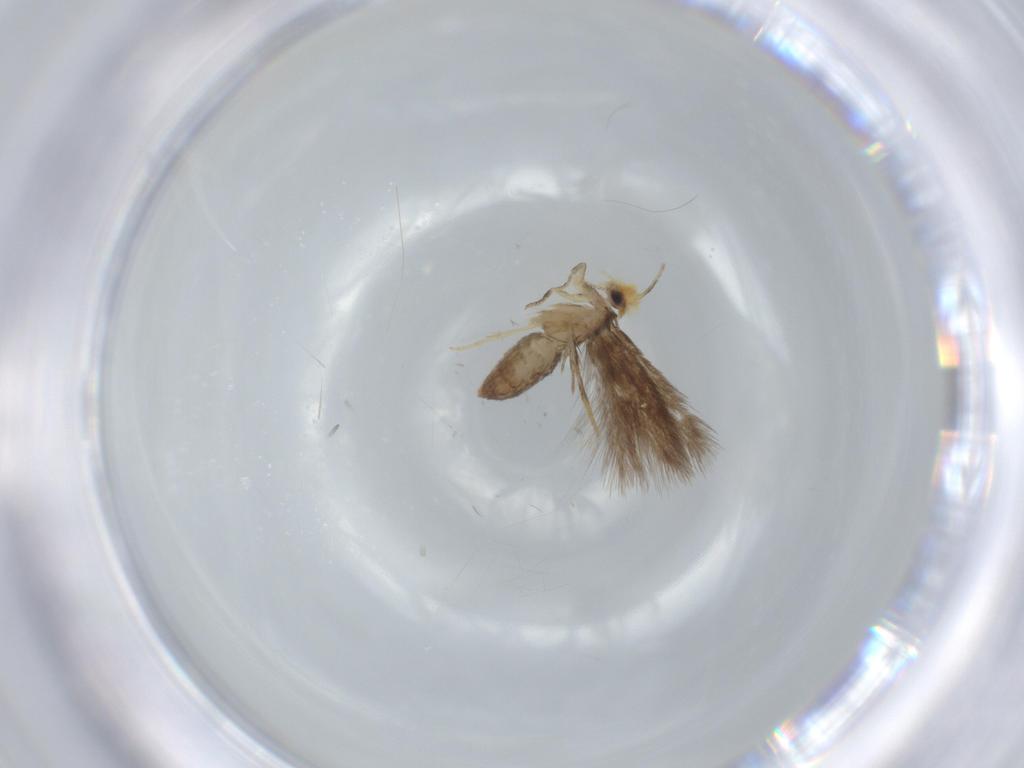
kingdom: Animalia
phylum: Arthropoda
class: Insecta
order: Lepidoptera
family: Nepticulidae
